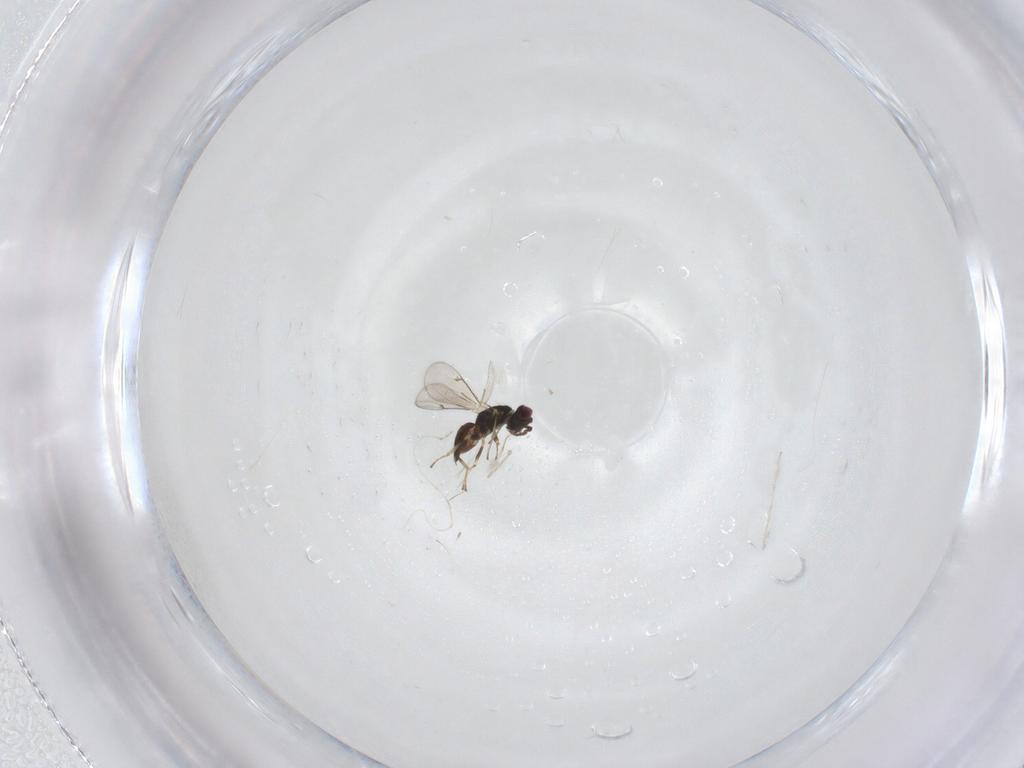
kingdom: Animalia
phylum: Arthropoda
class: Insecta
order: Hymenoptera
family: Eulophidae
